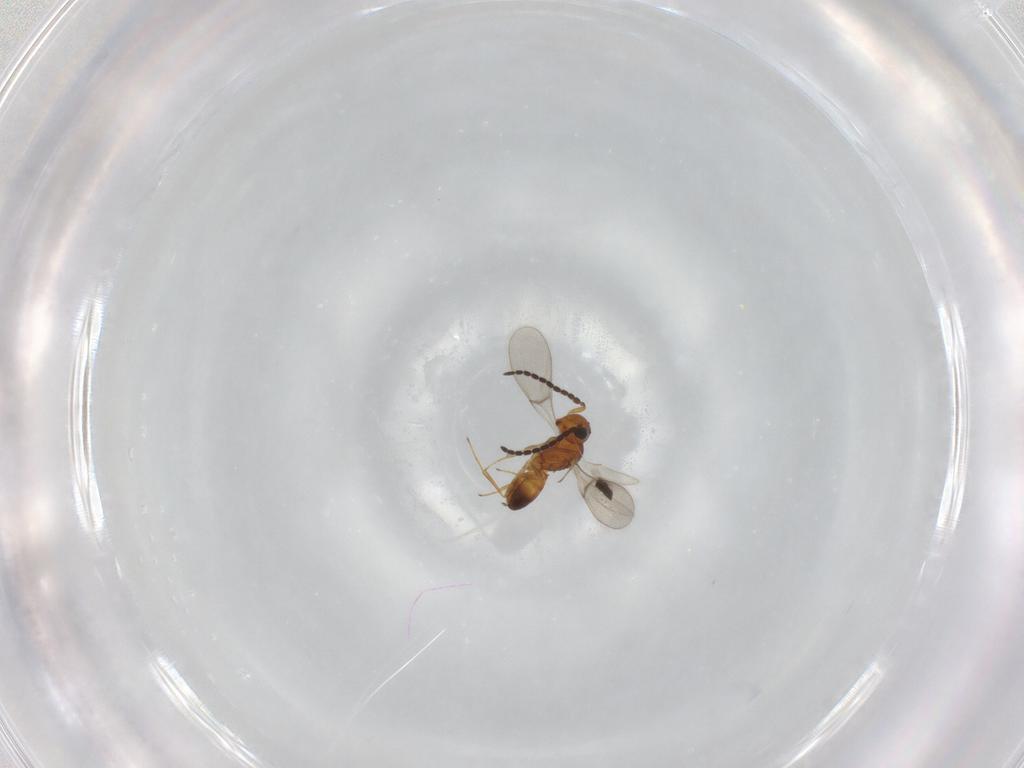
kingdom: Animalia
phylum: Arthropoda
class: Insecta
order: Hymenoptera
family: Scelionidae
